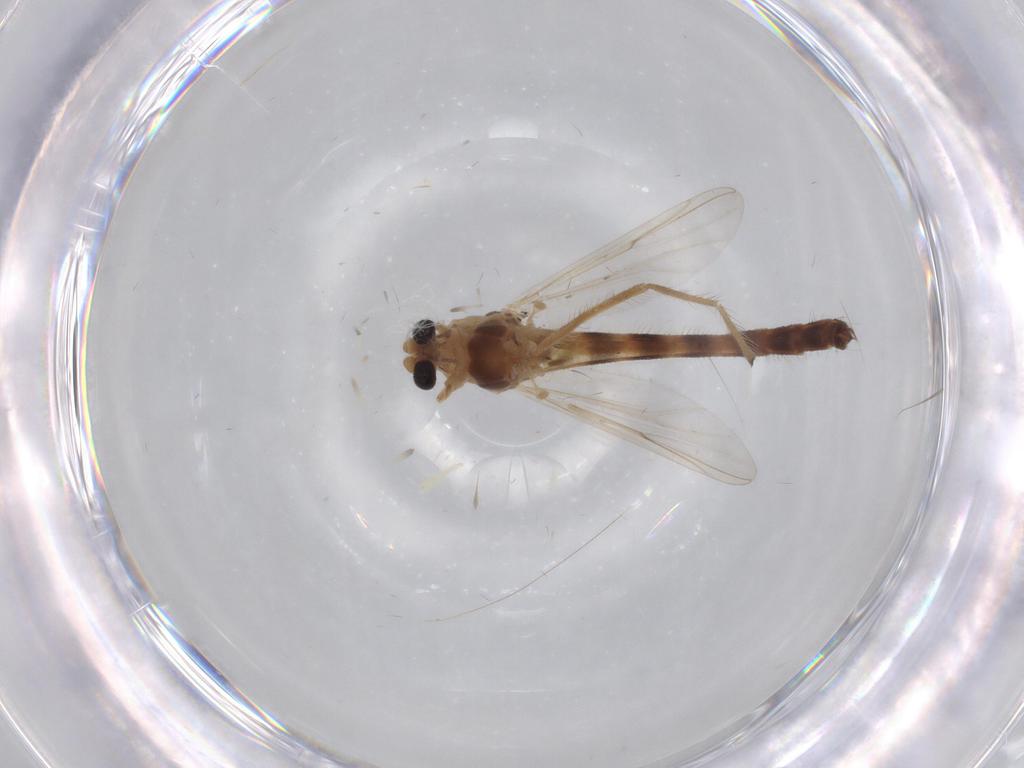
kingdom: Animalia
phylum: Arthropoda
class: Insecta
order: Diptera
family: Chironomidae
